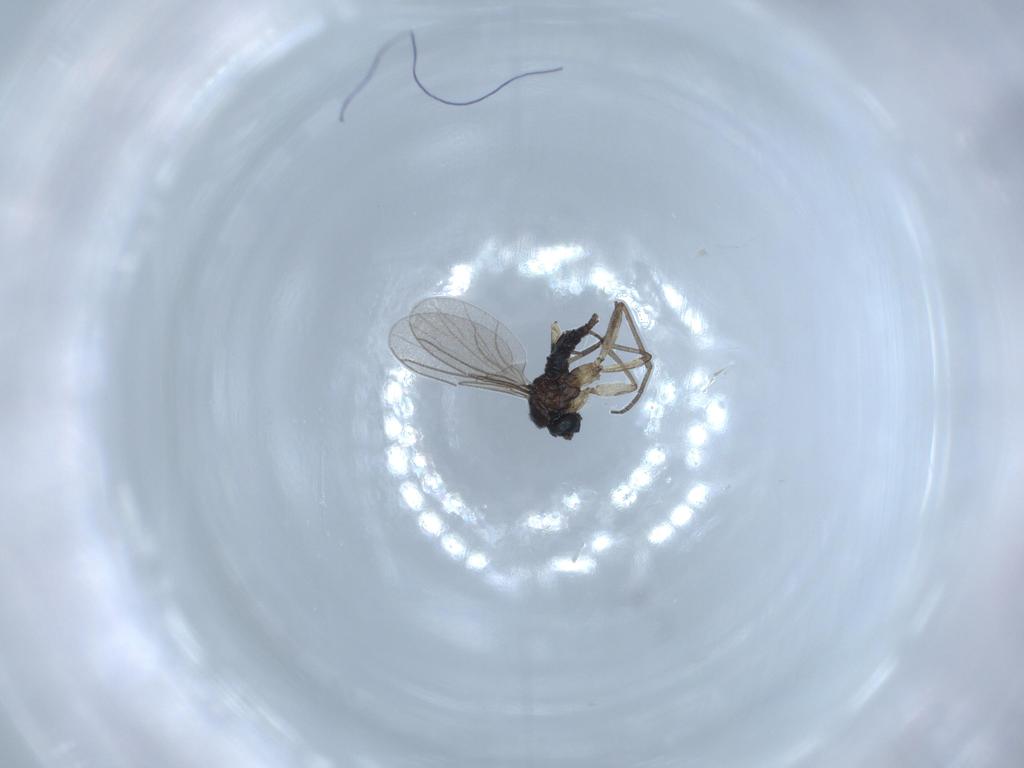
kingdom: Animalia
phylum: Arthropoda
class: Insecta
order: Diptera
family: Sciaridae
